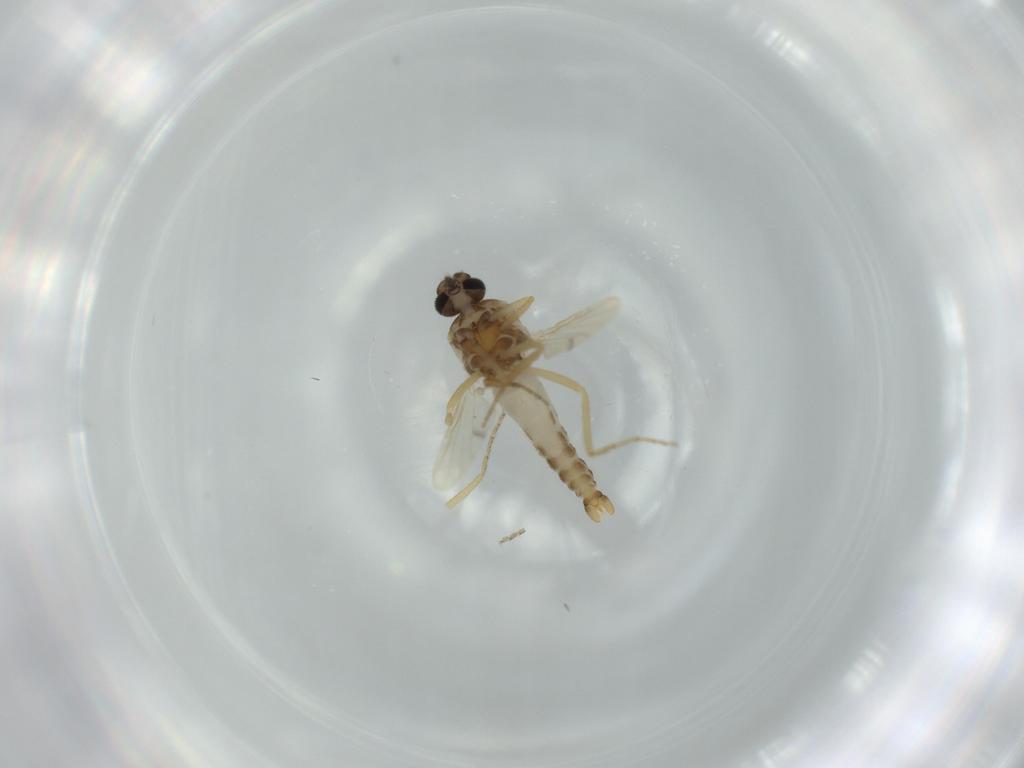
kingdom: Animalia
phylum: Arthropoda
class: Insecta
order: Diptera
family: Ceratopogonidae
